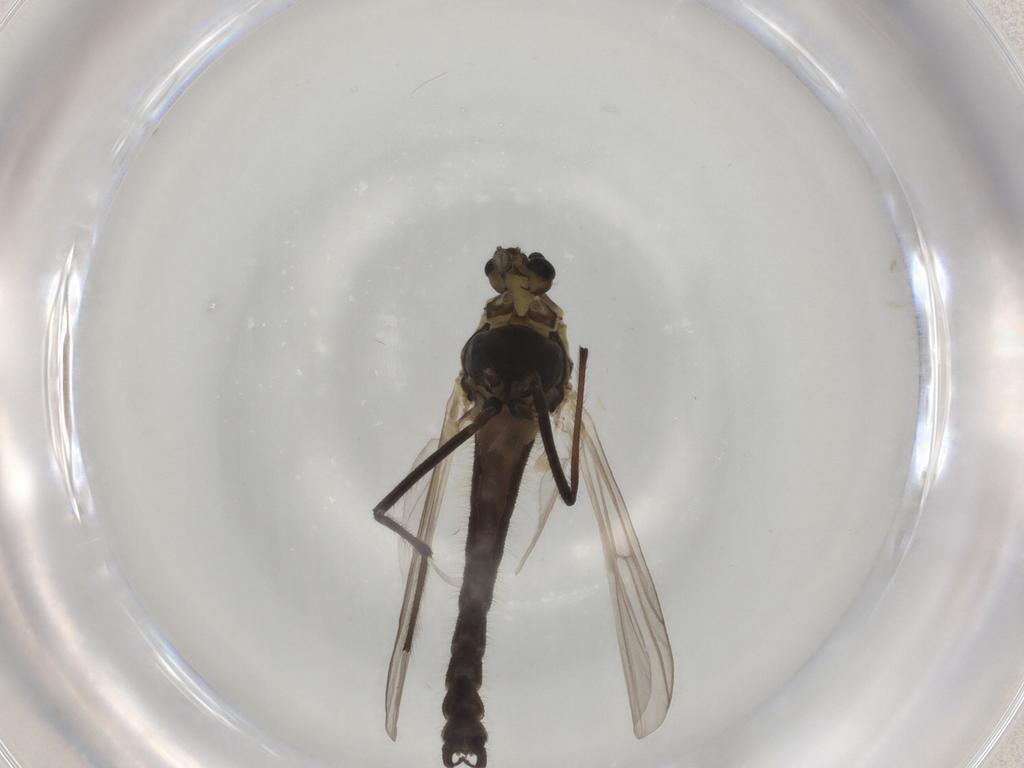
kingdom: Animalia
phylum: Arthropoda
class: Insecta
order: Diptera
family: Tachinidae
